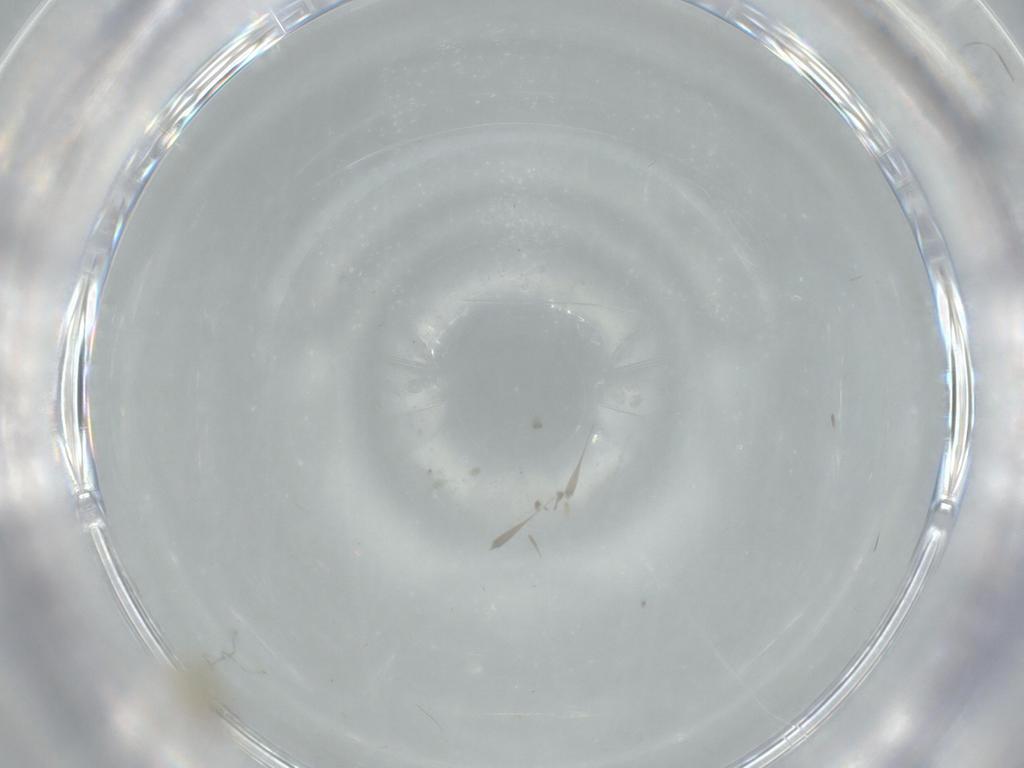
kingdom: Animalia
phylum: Arthropoda
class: Insecta
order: Diptera
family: Cecidomyiidae
